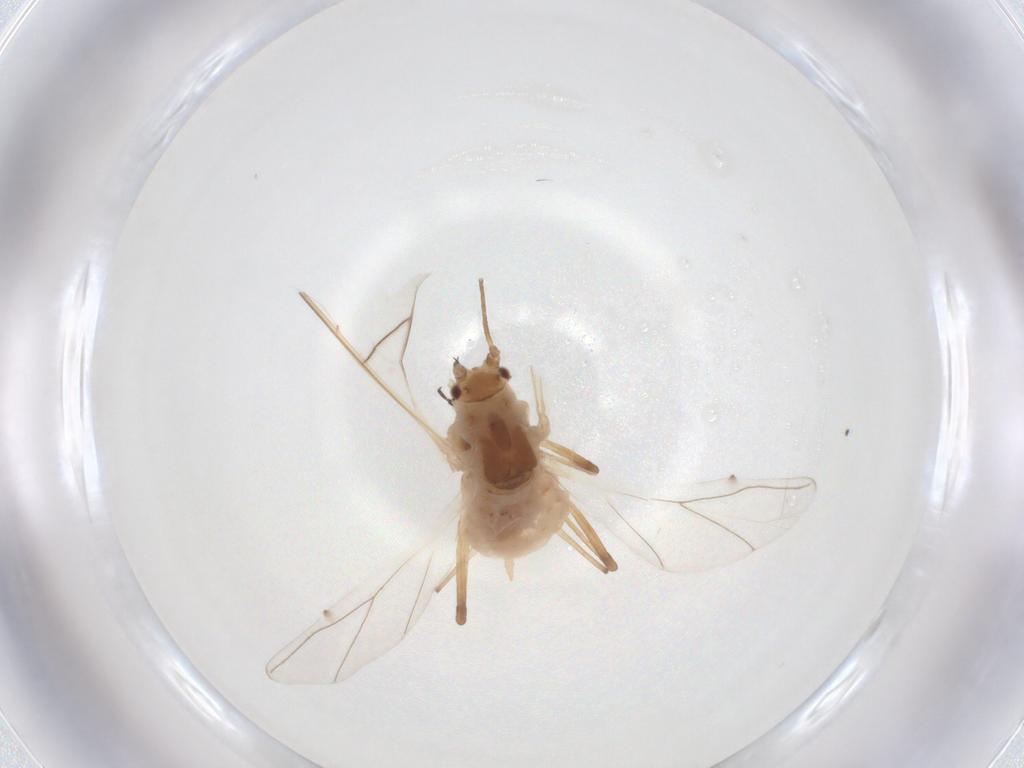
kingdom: Animalia
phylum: Arthropoda
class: Insecta
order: Hemiptera
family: Aphididae
